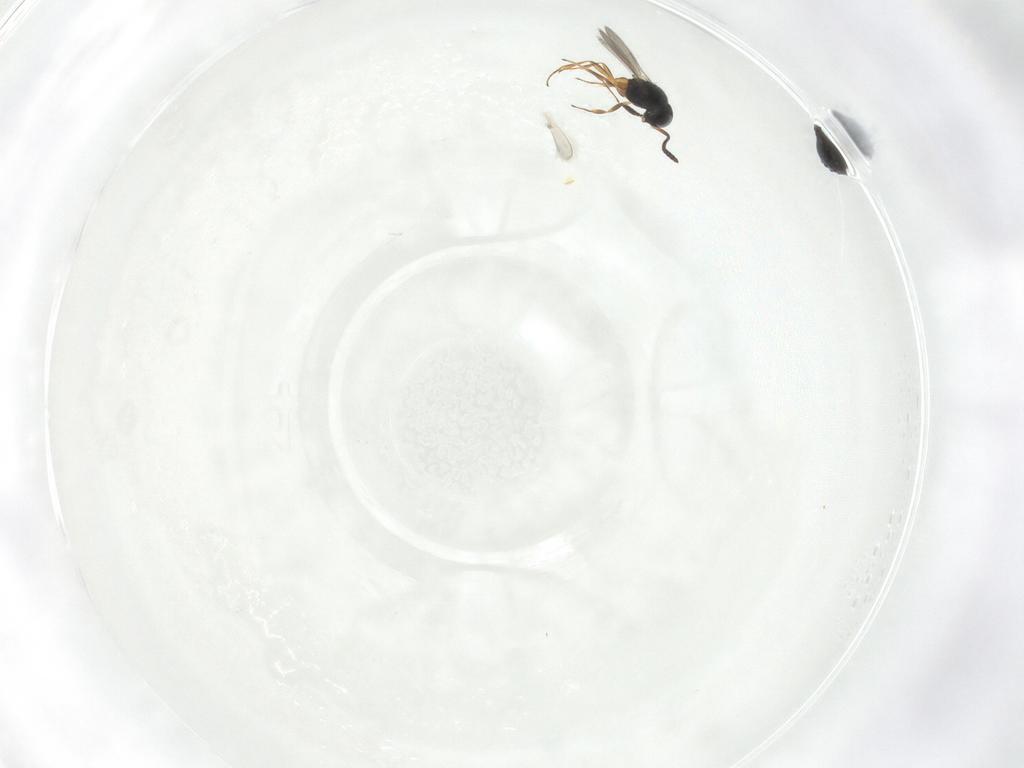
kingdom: Animalia
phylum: Arthropoda
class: Insecta
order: Hymenoptera
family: Scelionidae
